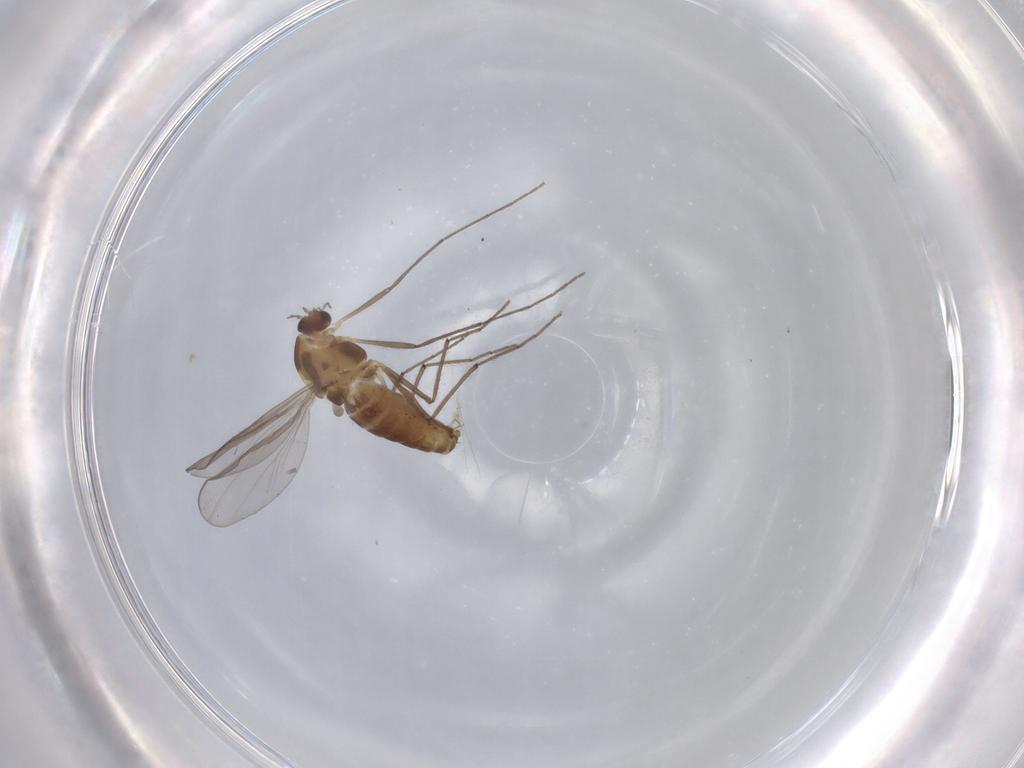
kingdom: Animalia
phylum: Arthropoda
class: Insecta
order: Diptera
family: Chironomidae
